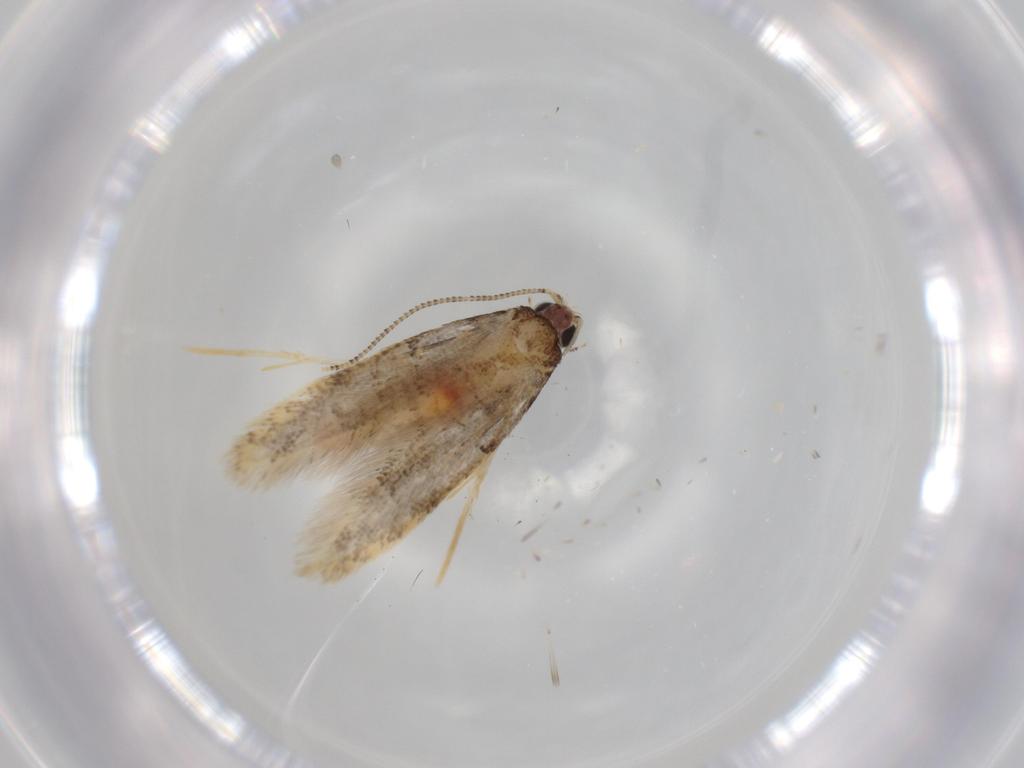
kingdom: Animalia
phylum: Arthropoda
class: Insecta
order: Lepidoptera
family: Tineidae
